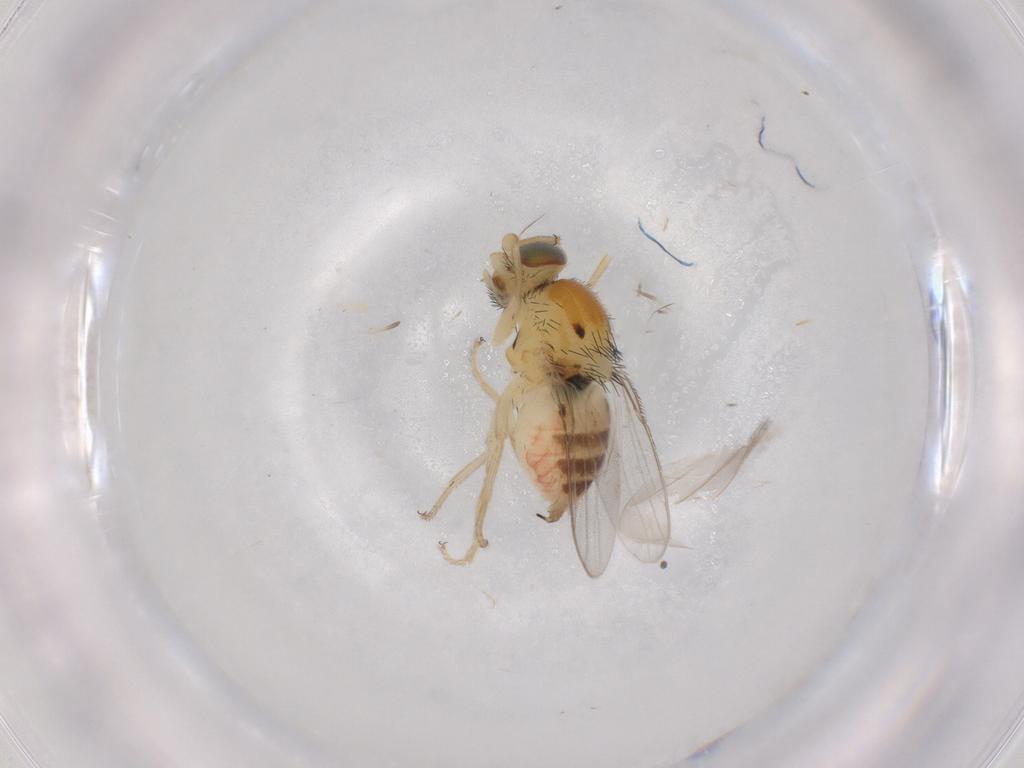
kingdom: Animalia
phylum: Arthropoda
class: Insecta
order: Diptera
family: Chloropidae
